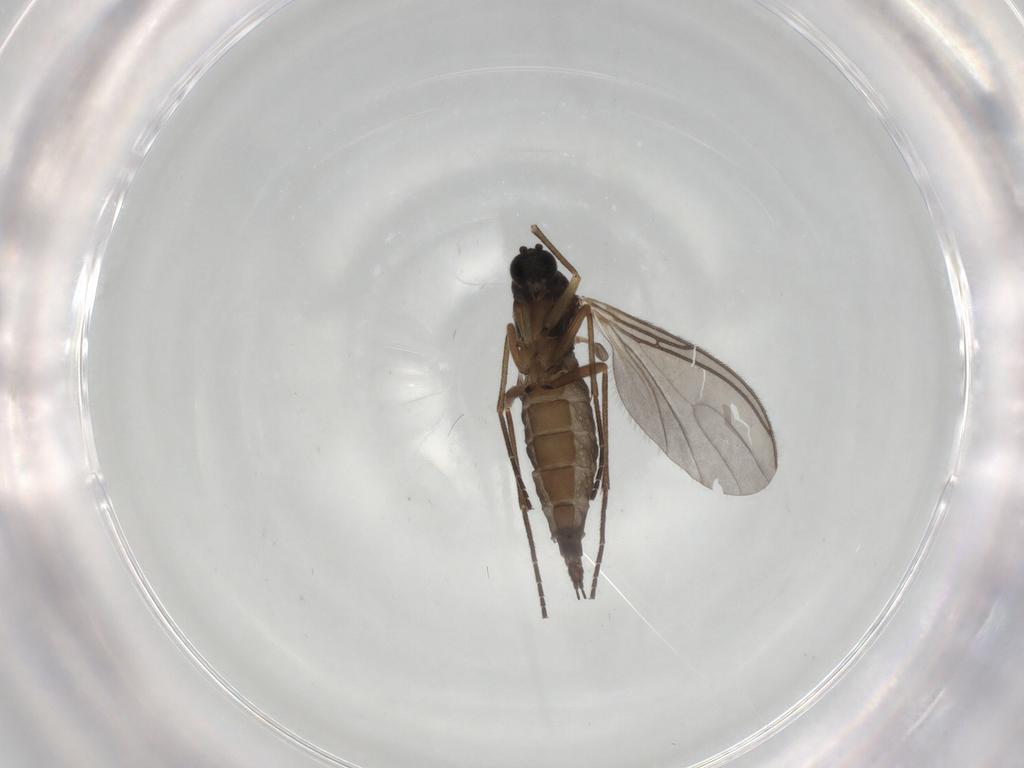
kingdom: Animalia
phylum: Arthropoda
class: Insecta
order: Diptera
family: Sciaridae
